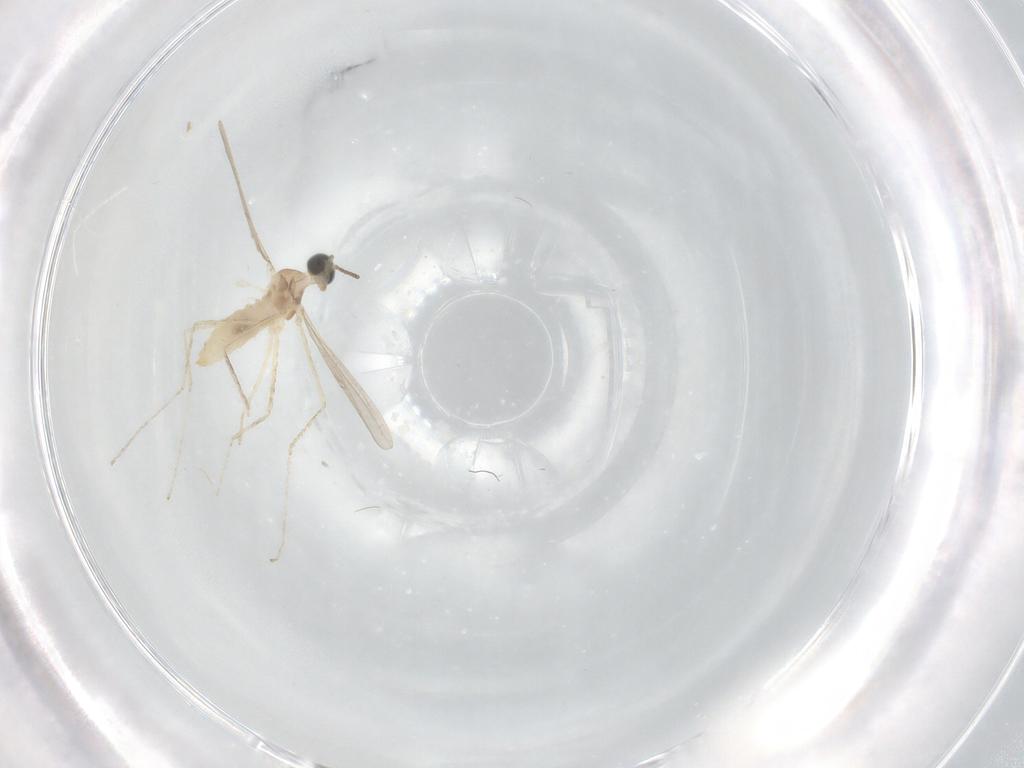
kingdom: Animalia
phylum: Arthropoda
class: Insecta
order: Diptera
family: Cecidomyiidae
